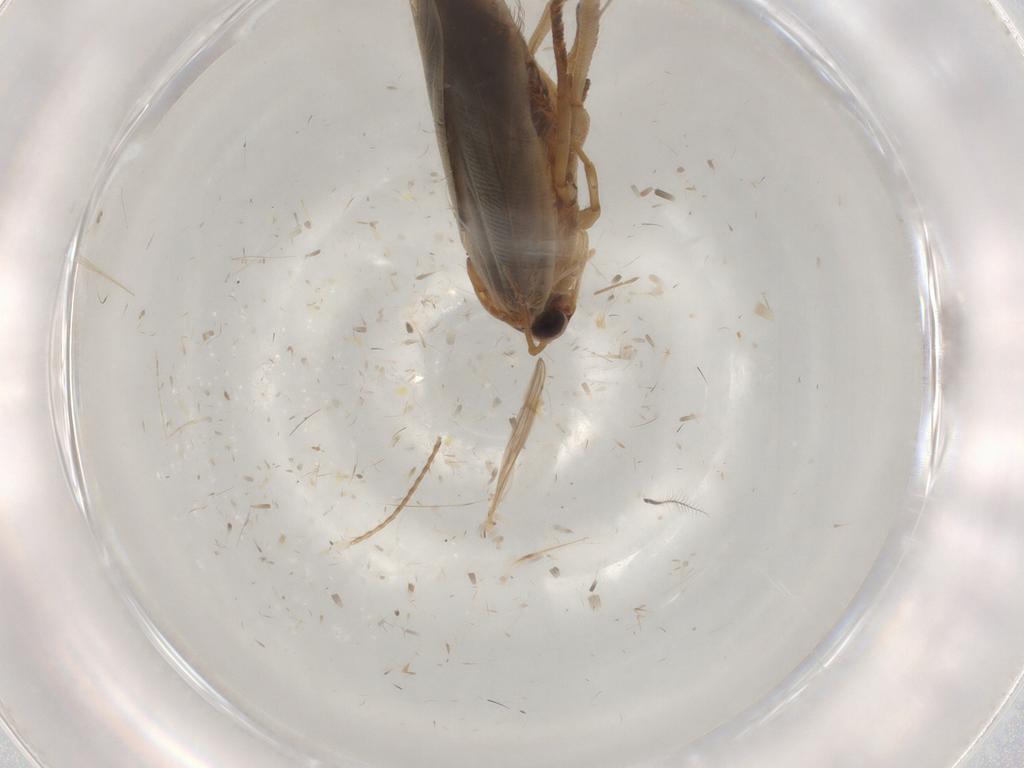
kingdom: Animalia
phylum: Arthropoda
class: Insecta
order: Lepidoptera
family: Gelechiidae
